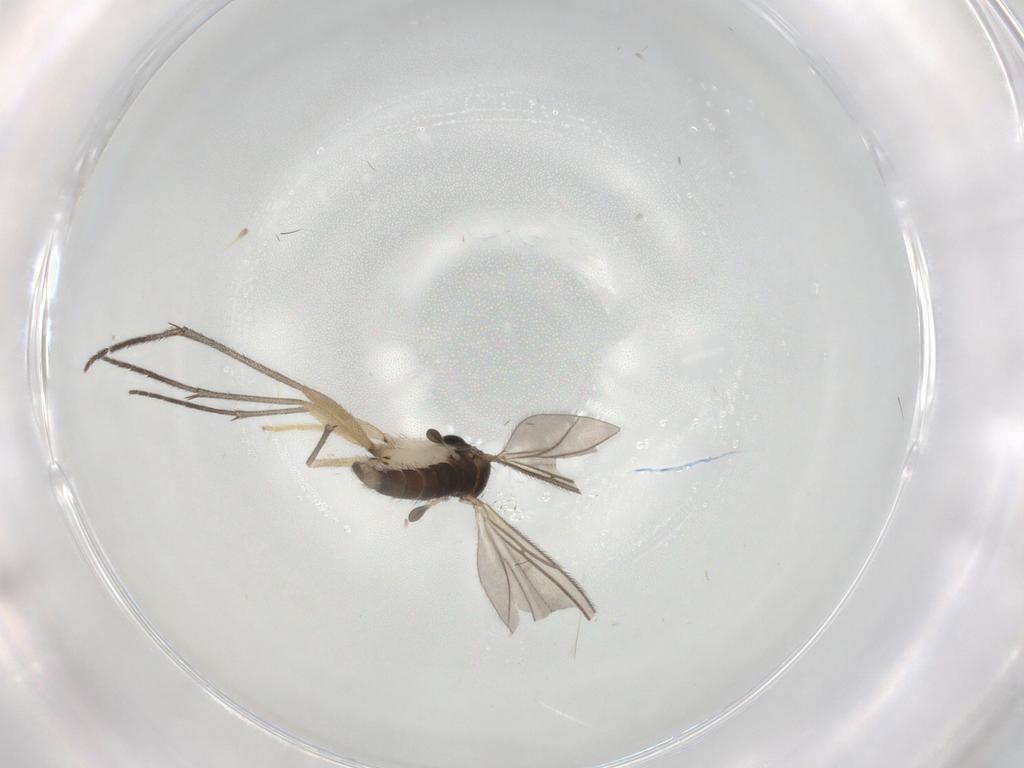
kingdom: Animalia
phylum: Arthropoda
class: Insecta
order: Diptera
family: Sciaridae
